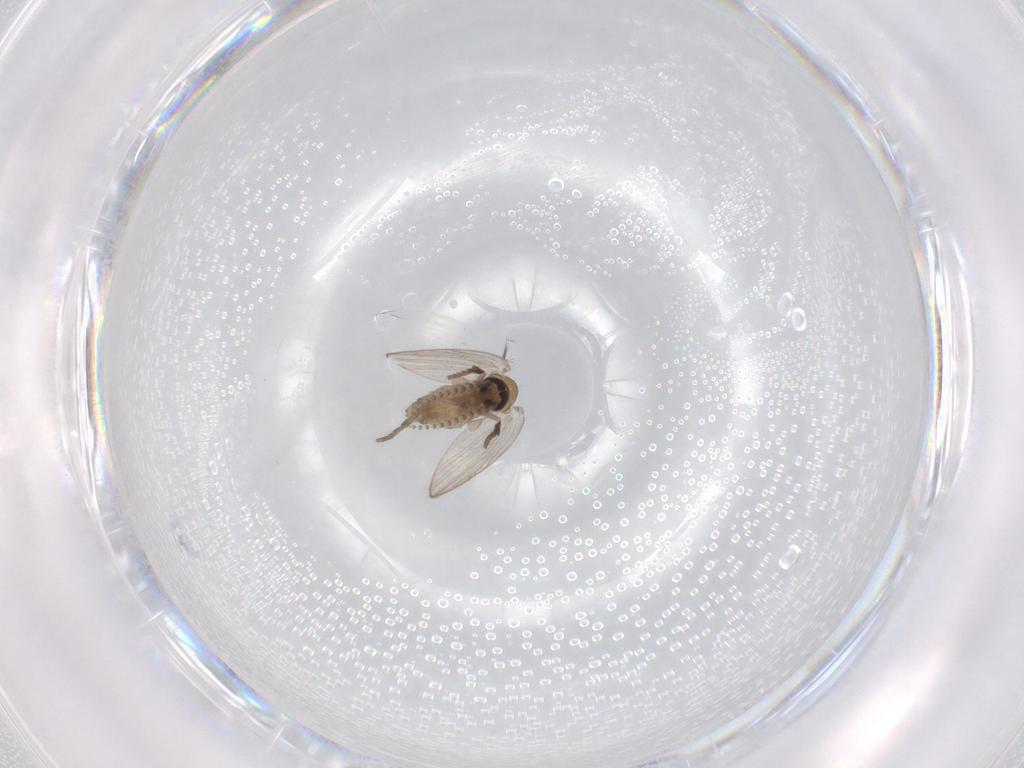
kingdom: Animalia
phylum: Arthropoda
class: Insecta
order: Diptera
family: Psychodidae
